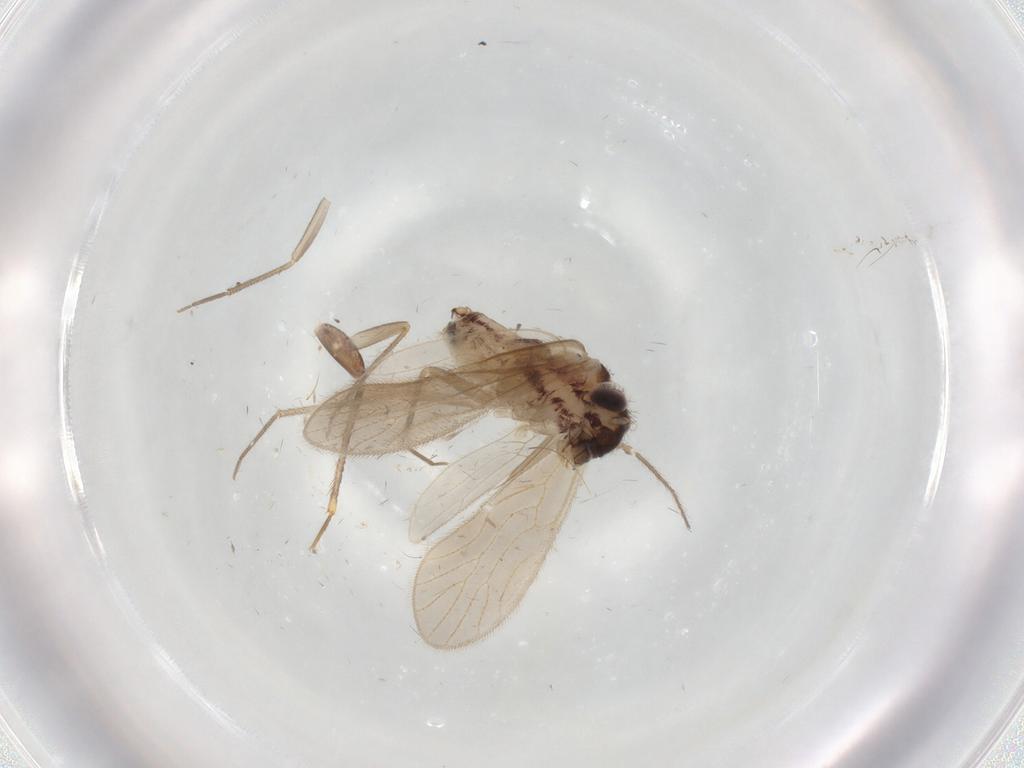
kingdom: Animalia
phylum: Arthropoda
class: Insecta
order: Psocodea
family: Lepidopsocidae
